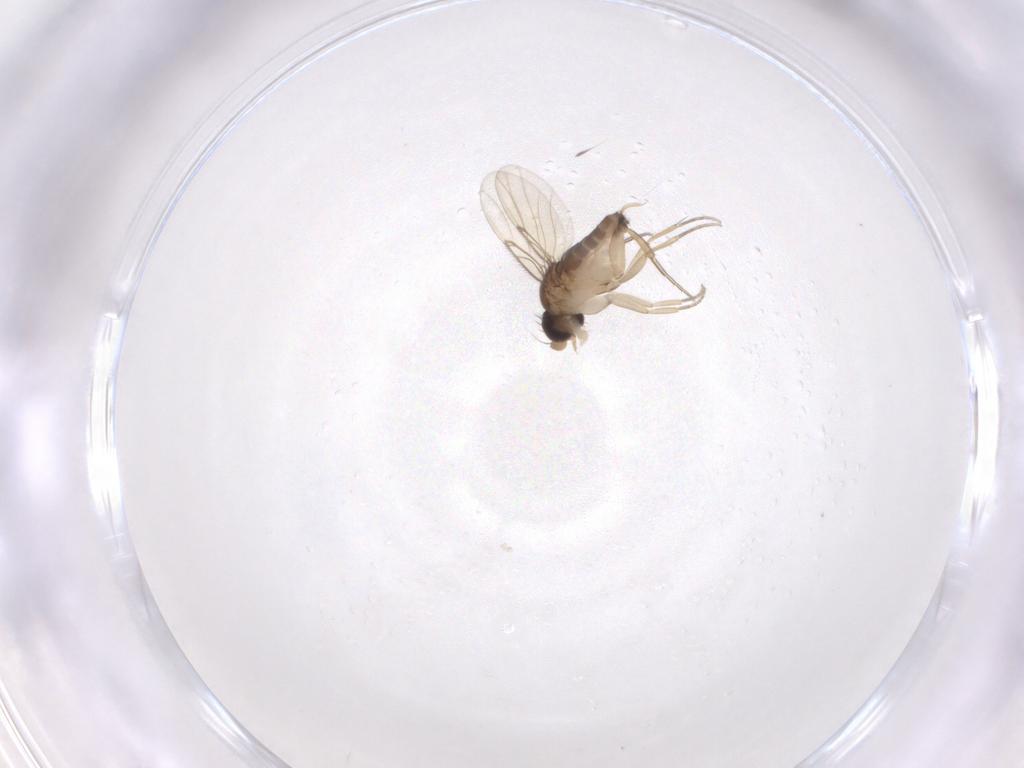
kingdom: Animalia
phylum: Arthropoda
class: Insecta
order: Diptera
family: Phoridae
